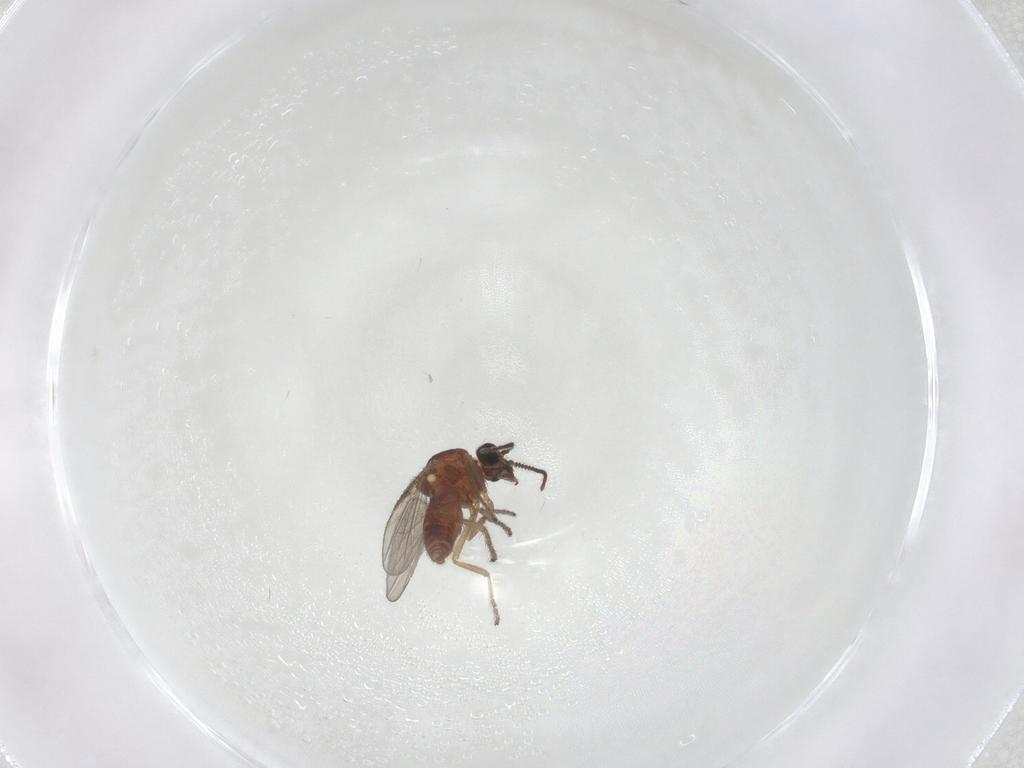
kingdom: Animalia
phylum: Arthropoda
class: Insecta
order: Diptera
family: Ceratopogonidae
